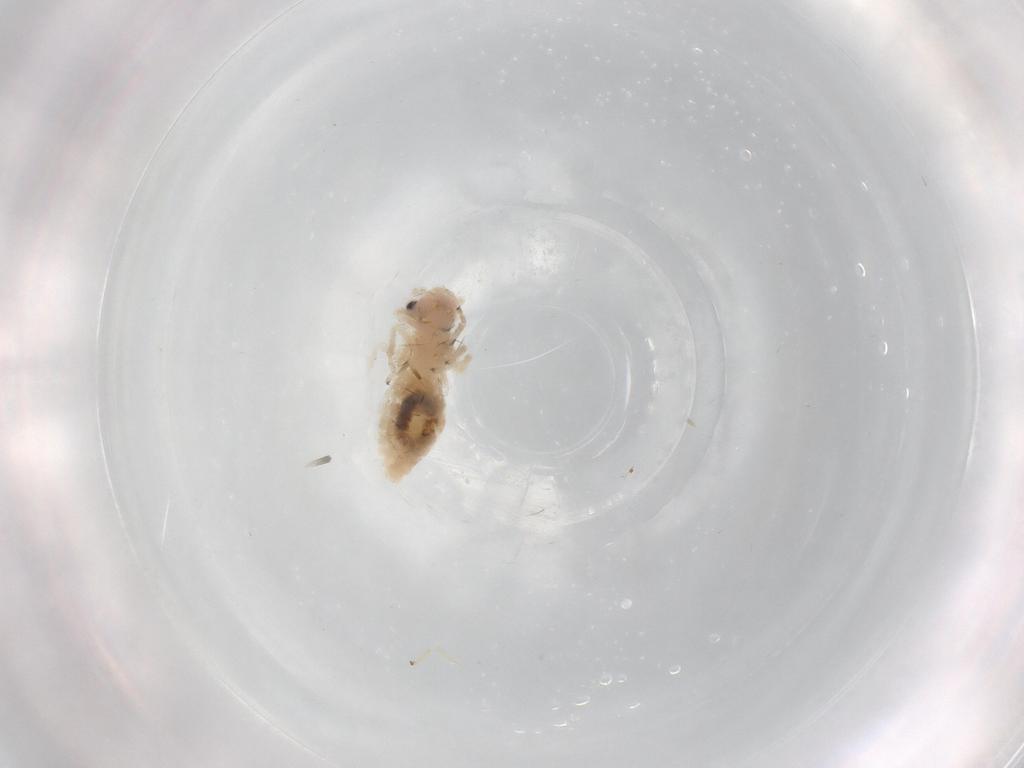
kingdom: Animalia
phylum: Arthropoda
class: Insecta
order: Psocodea
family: Caeciliusidae
